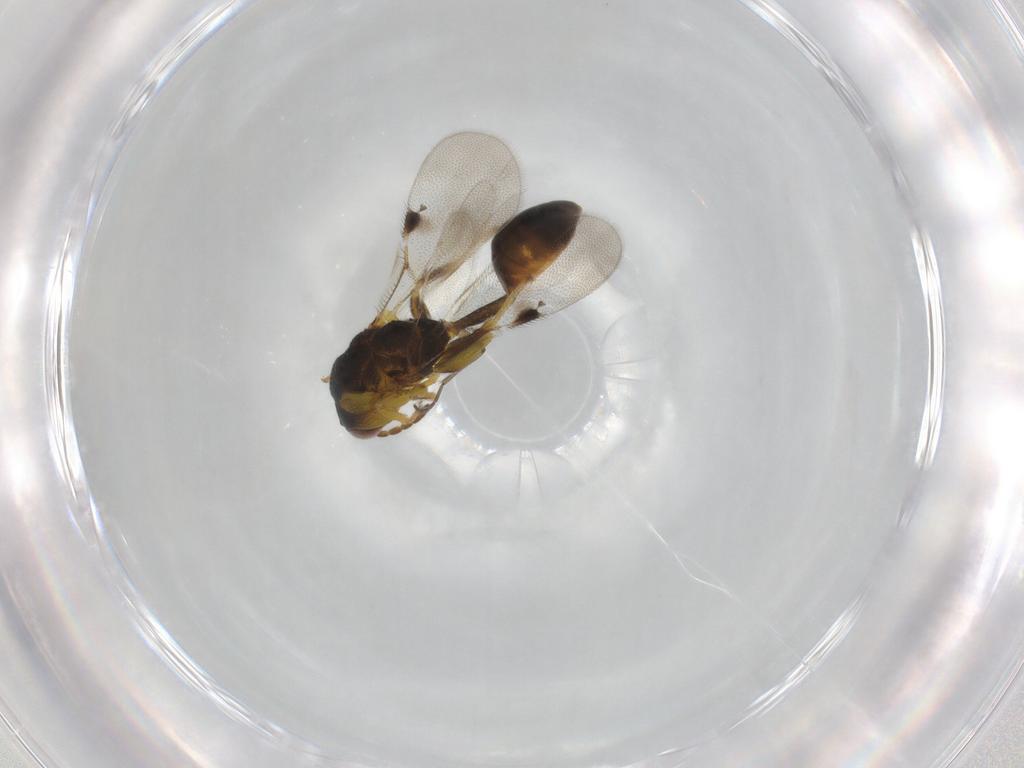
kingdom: Animalia
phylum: Arthropoda
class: Insecta
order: Hymenoptera
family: Eurytomidae
